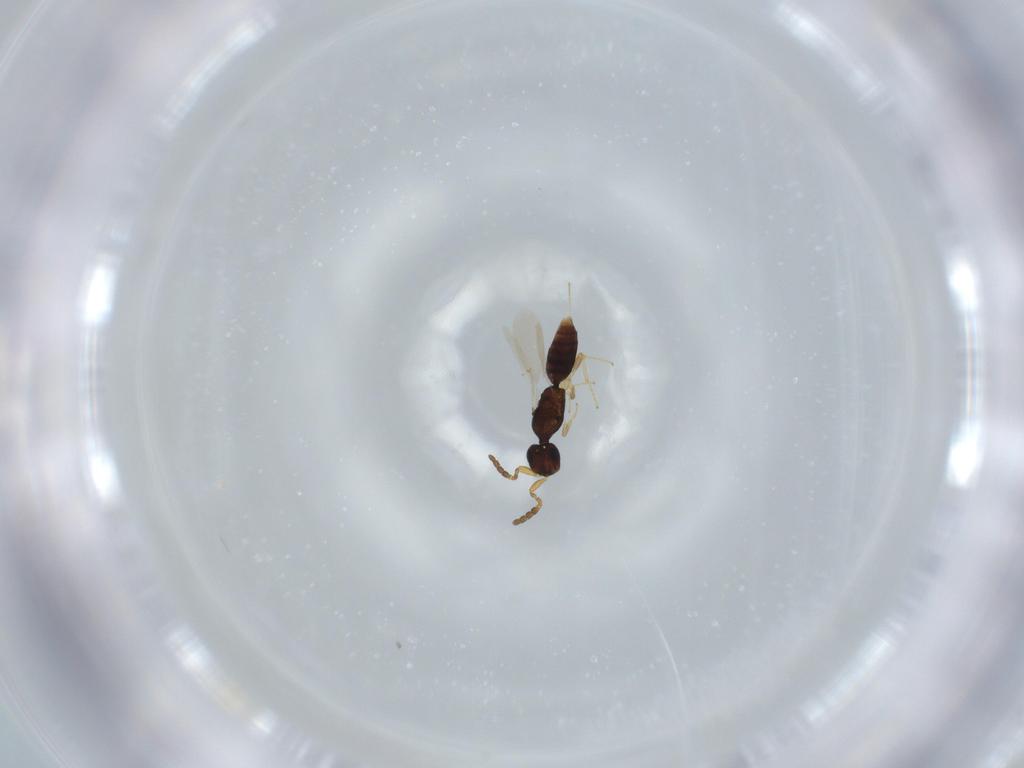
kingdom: Animalia
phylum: Arthropoda
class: Insecta
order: Hymenoptera
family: Platygastridae
